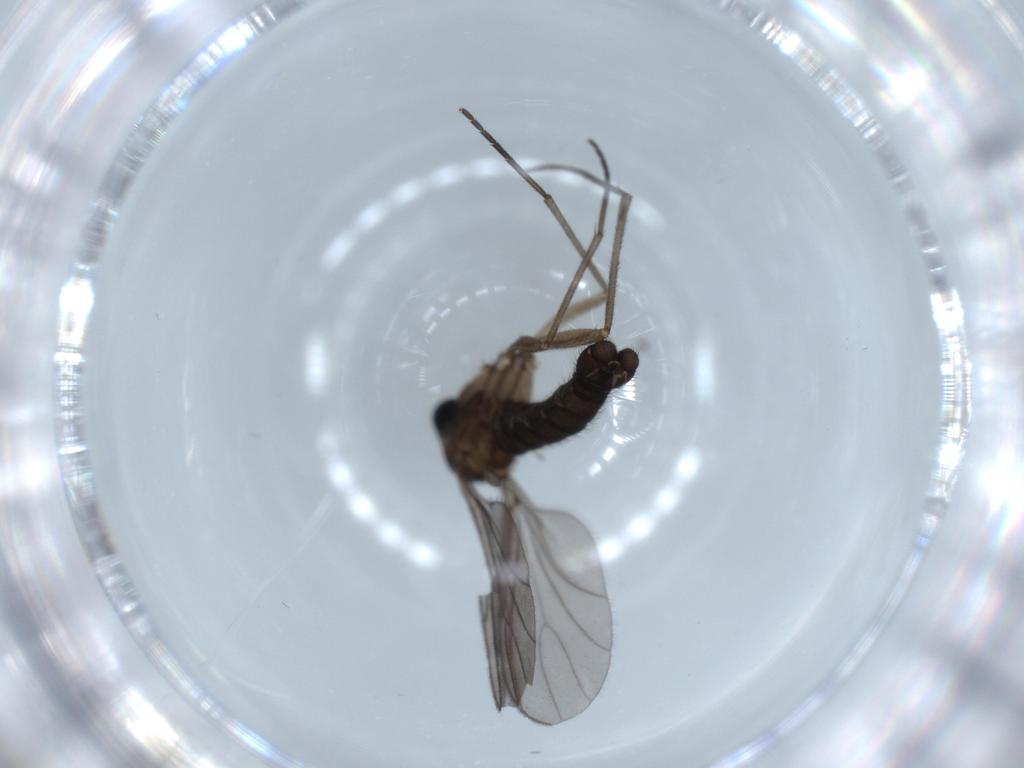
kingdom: Animalia
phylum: Arthropoda
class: Insecta
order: Diptera
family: Sciaridae
